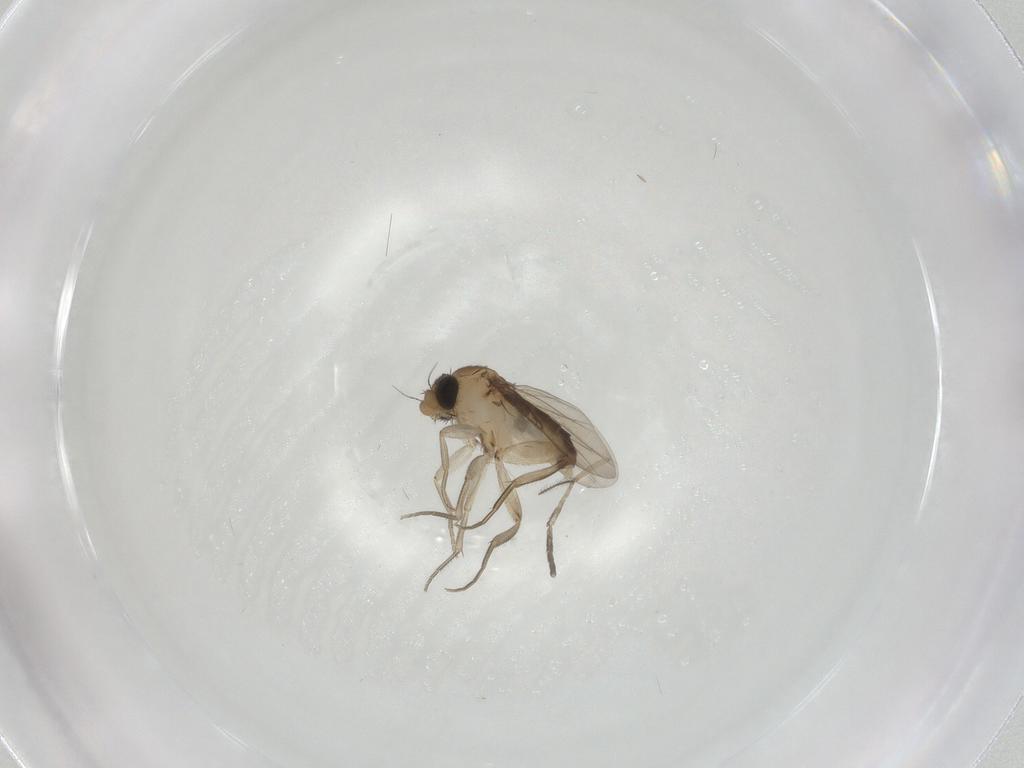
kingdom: Animalia
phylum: Arthropoda
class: Insecta
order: Diptera
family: Phoridae
